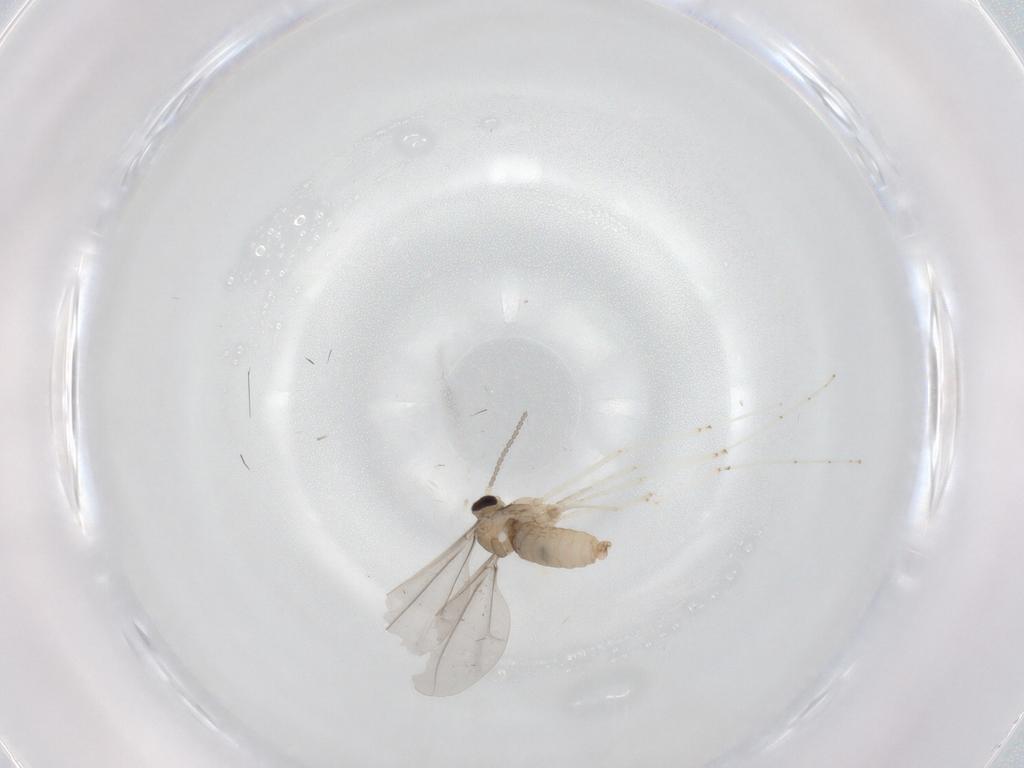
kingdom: Animalia
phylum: Arthropoda
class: Insecta
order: Diptera
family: Cecidomyiidae
